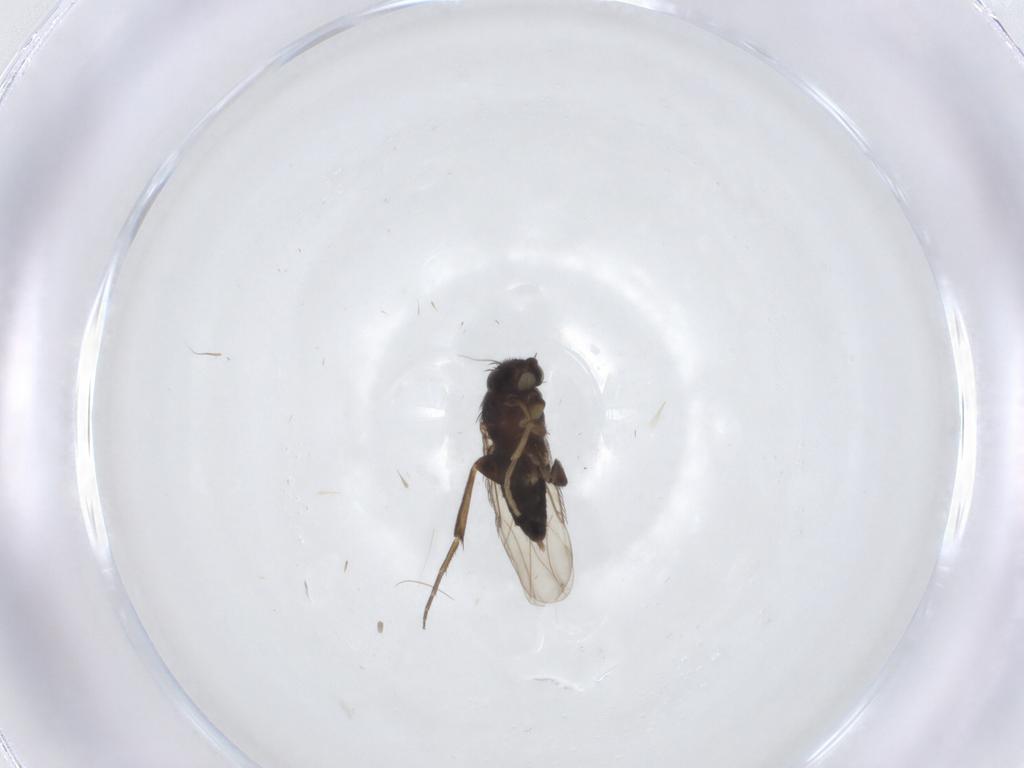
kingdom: Animalia
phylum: Arthropoda
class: Insecta
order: Diptera
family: Phoridae
